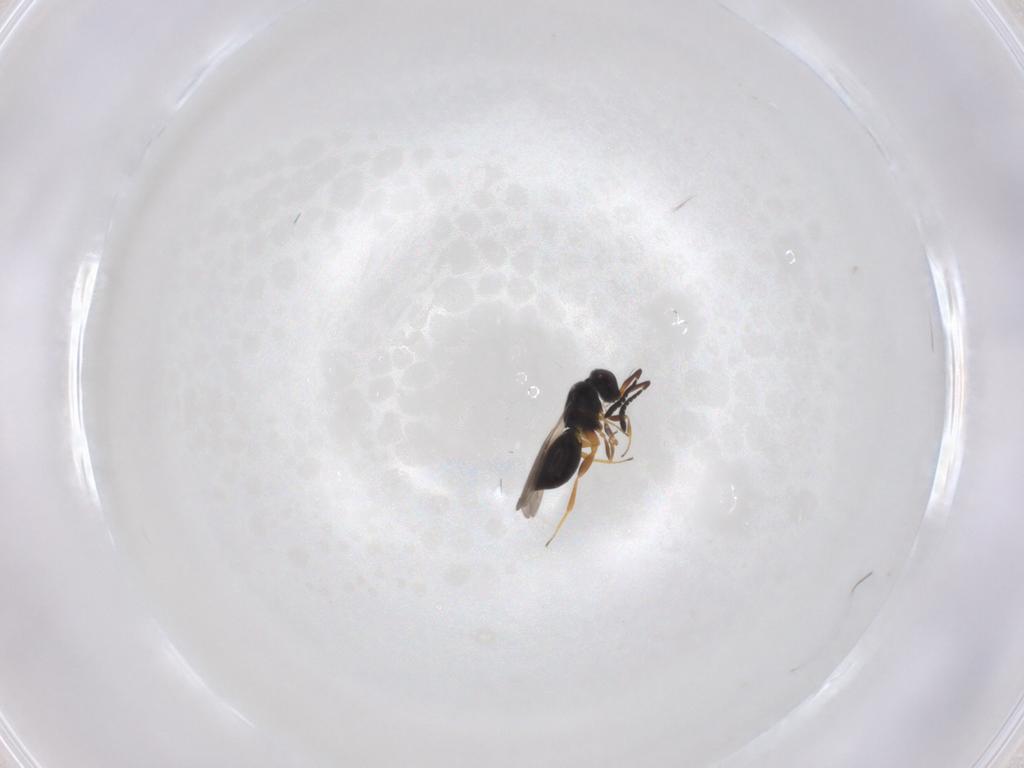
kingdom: Animalia
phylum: Arthropoda
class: Insecta
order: Hymenoptera
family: Ceraphronidae
